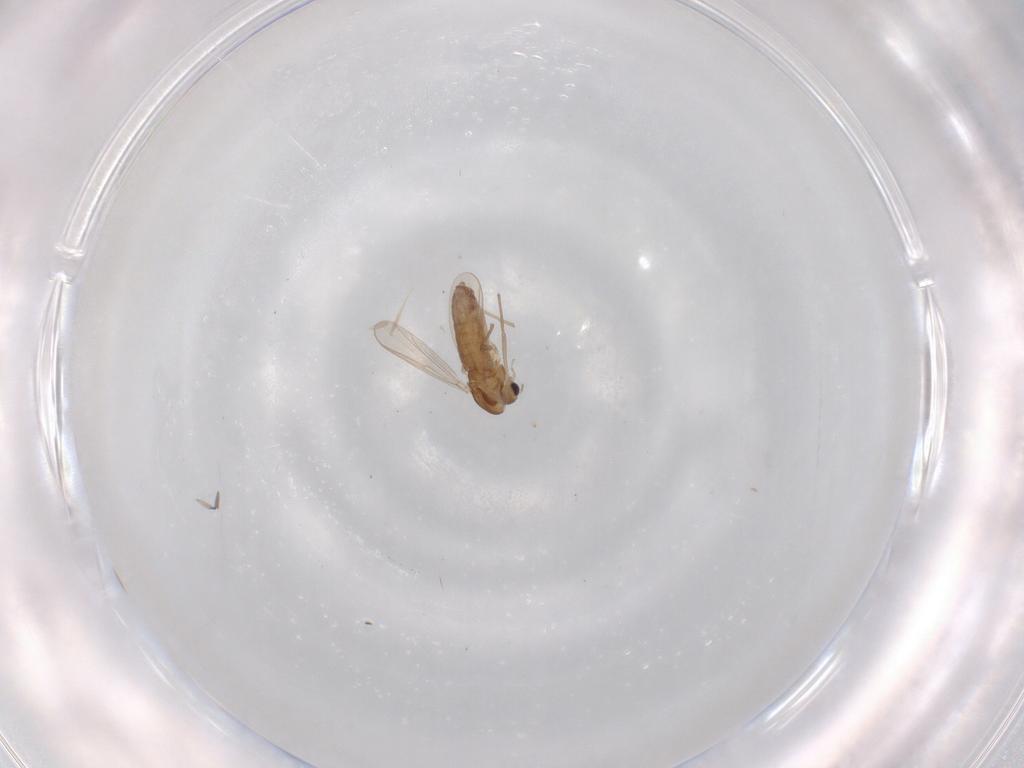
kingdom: Animalia
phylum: Arthropoda
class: Insecta
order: Diptera
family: Chironomidae
